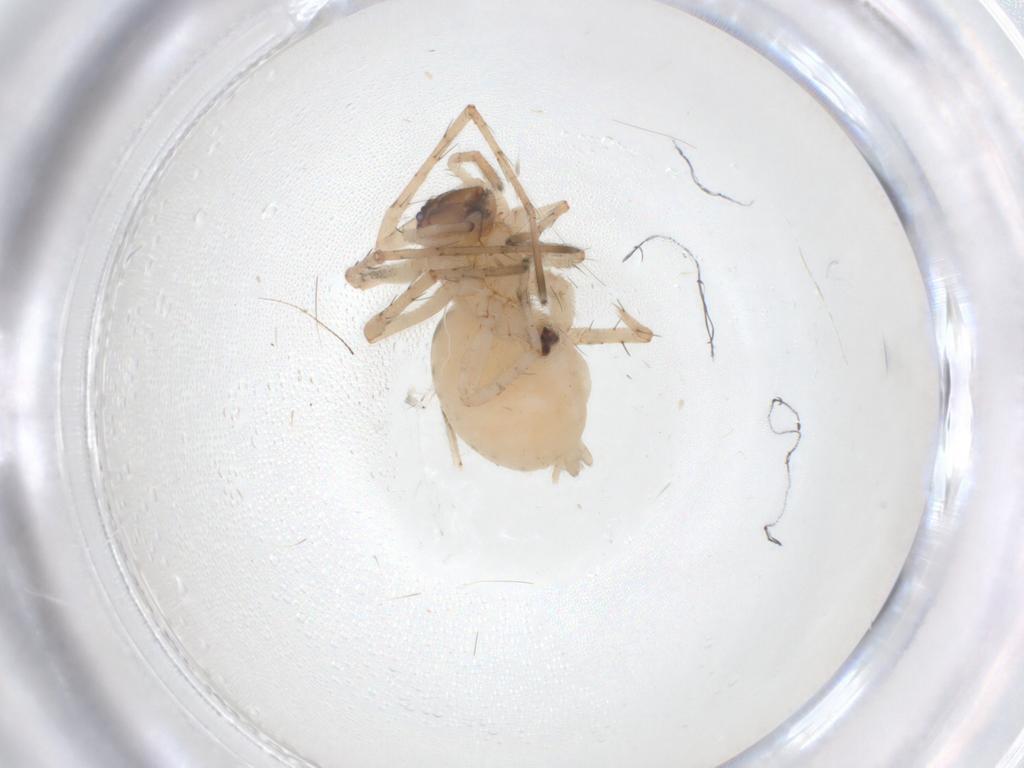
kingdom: Animalia
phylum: Arthropoda
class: Arachnida
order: Araneae
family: Anyphaenidae
